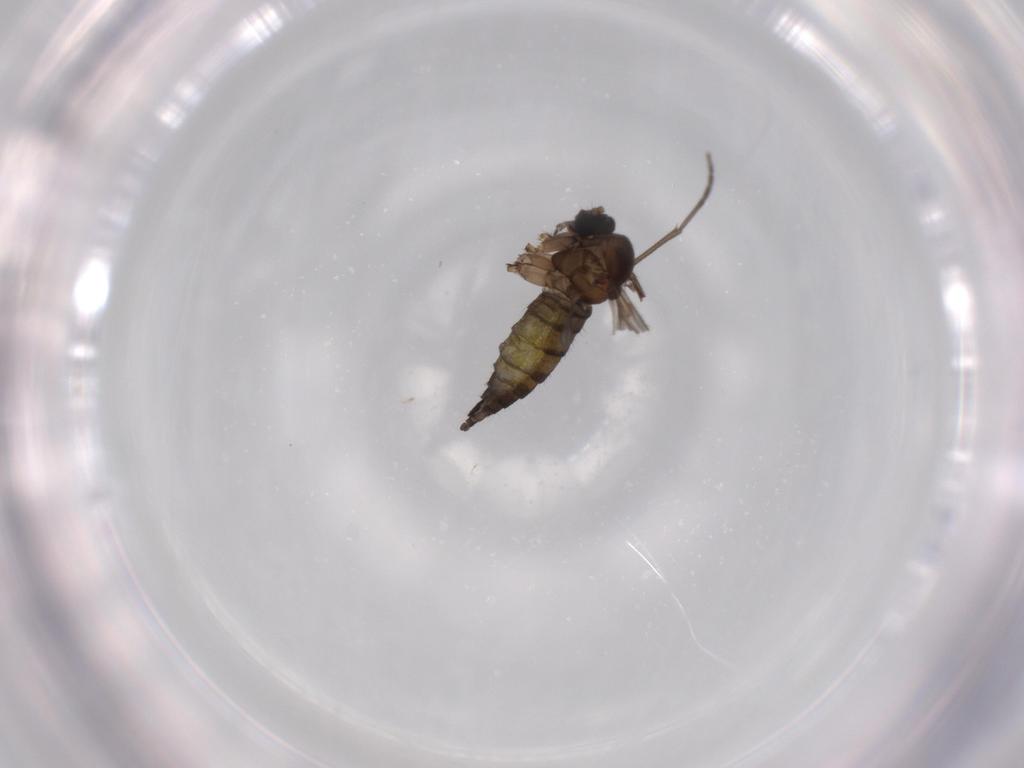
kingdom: Animalia
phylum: Arthropoda
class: Insecta
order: Diptera
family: Sciaridae
